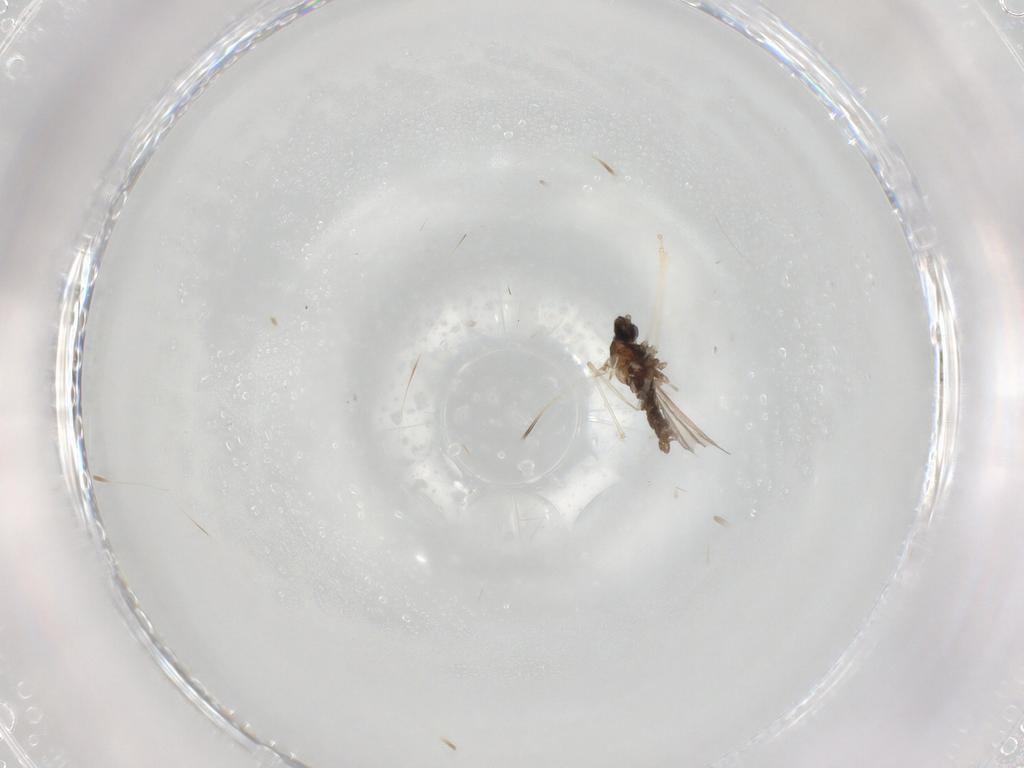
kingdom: Animalia
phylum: Arthropoda
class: Insecta
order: Diptera
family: Cecidomyiidae
